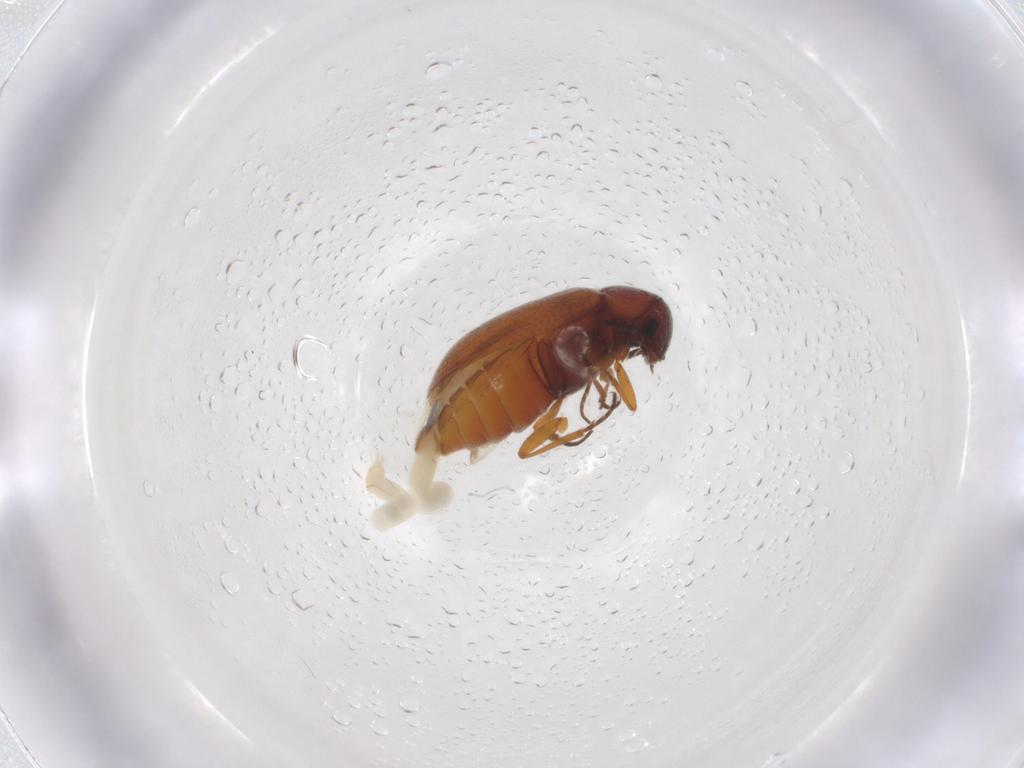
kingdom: Animalia
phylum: Arthropoda
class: Insecta
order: Coleoptera
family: Rhadalidae
